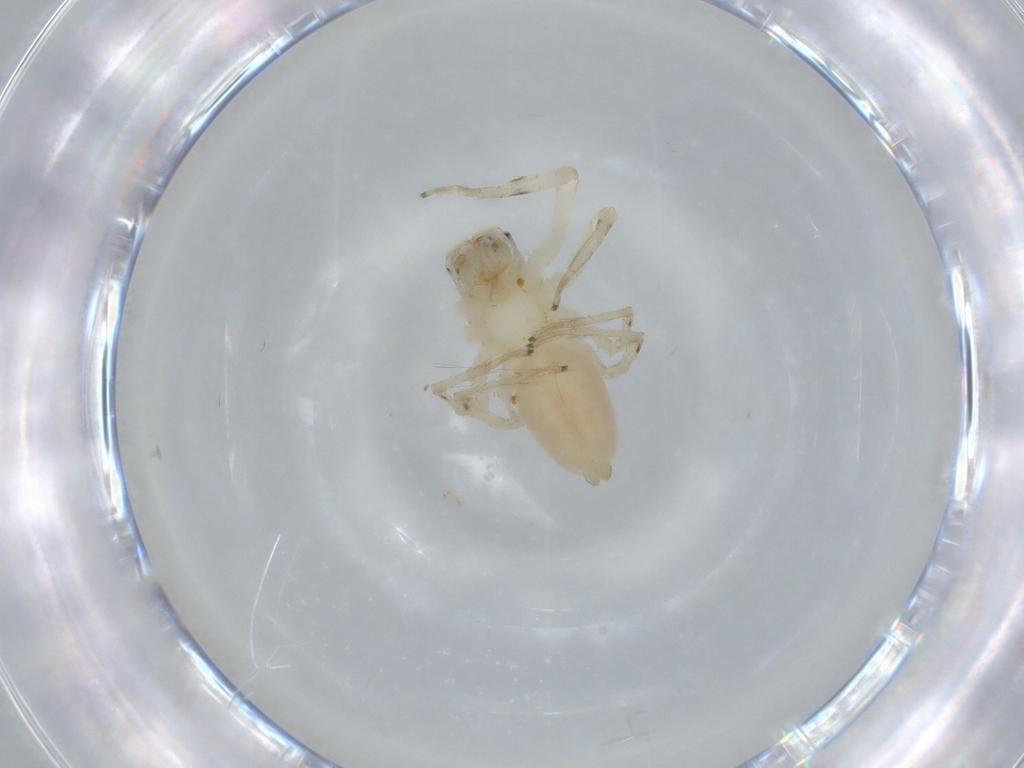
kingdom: Animalia
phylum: Arthropoda
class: Arachnida
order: Araneae
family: Salticidae
